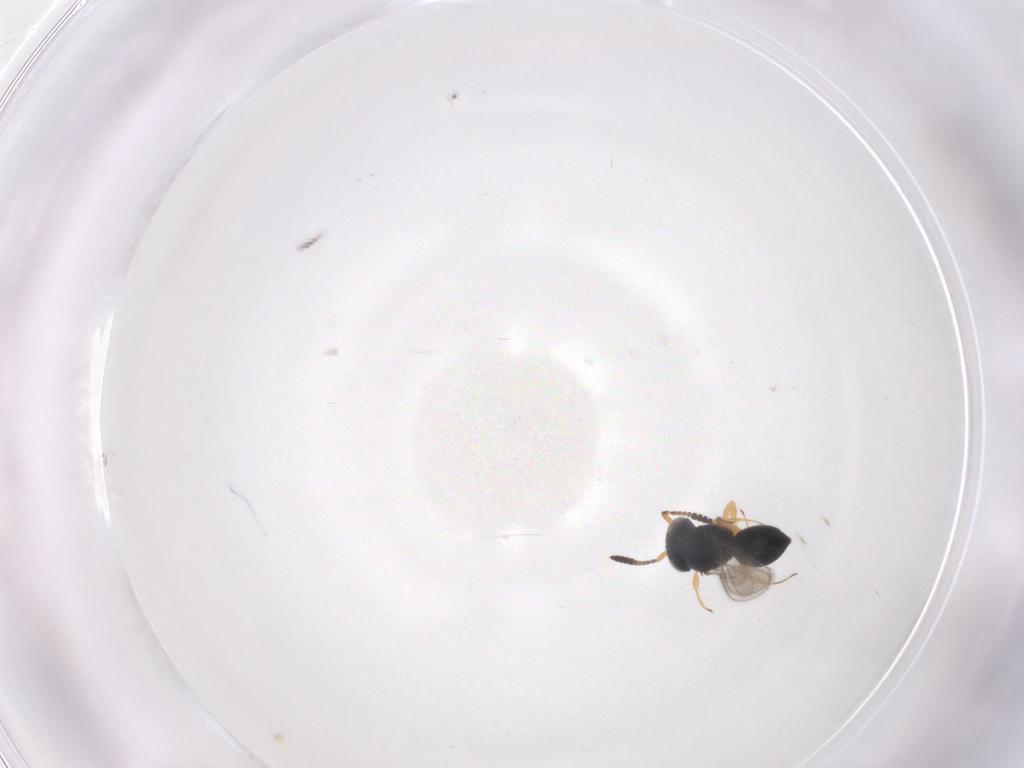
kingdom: Animalia
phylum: Arthropoda
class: Insecta
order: Hymenoptera
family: Scelionidae
